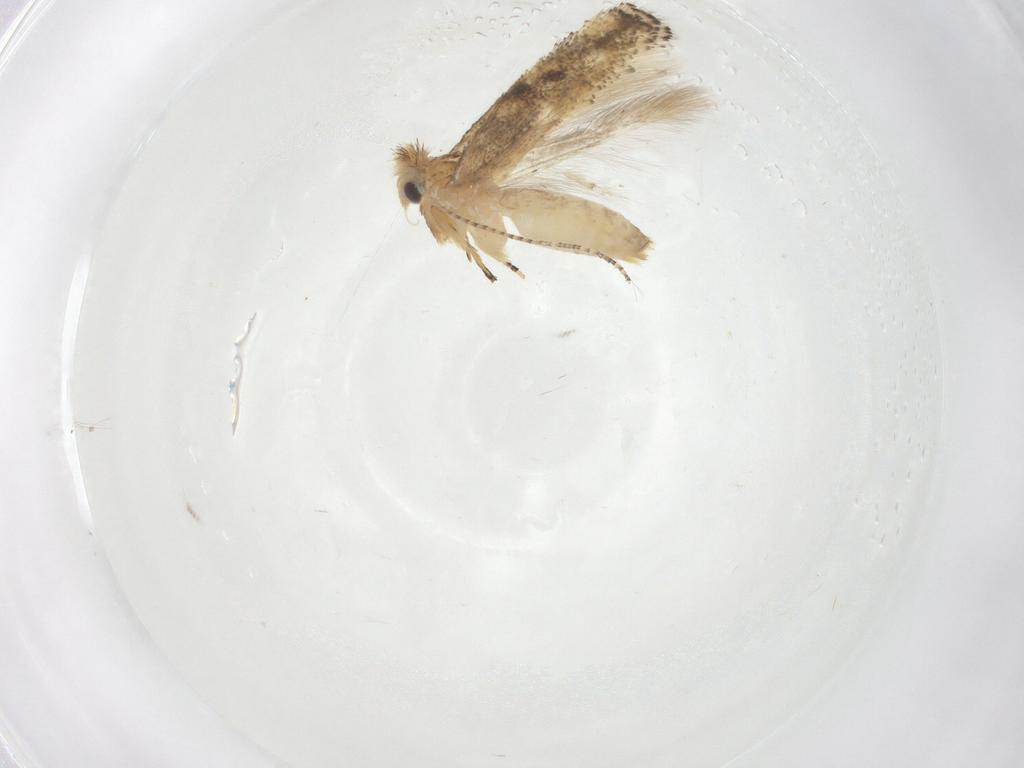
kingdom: Animalia
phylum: Arthropoda
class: Insecta
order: Lepidoptera
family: Bucculatricidae
